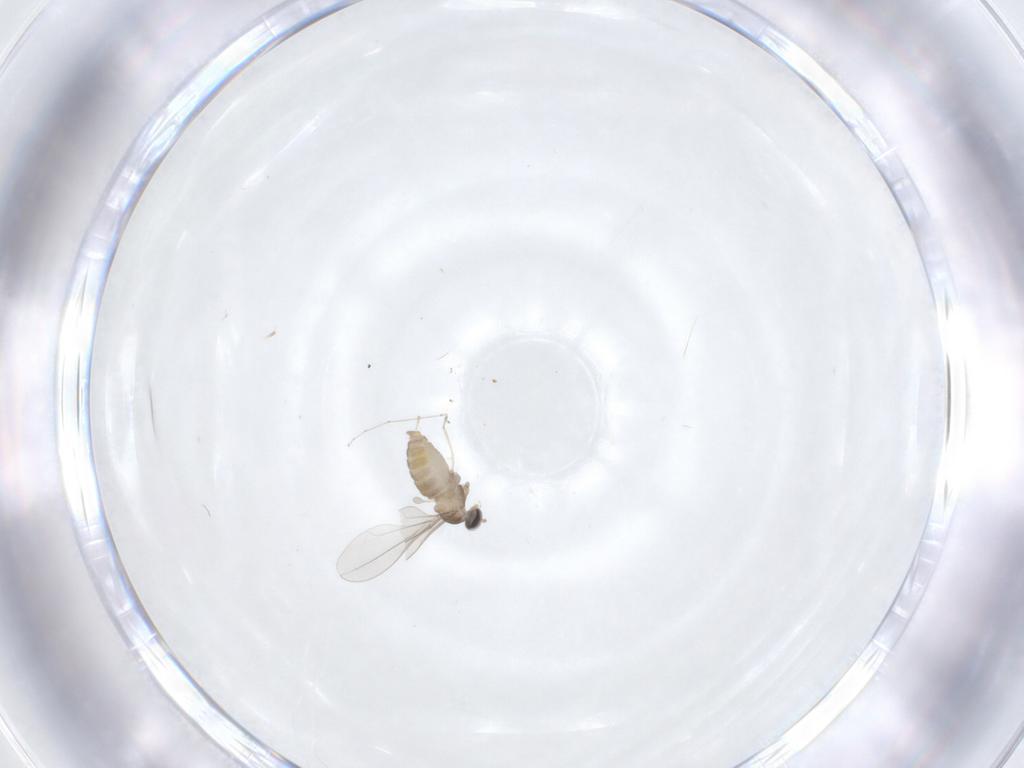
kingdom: Animalia
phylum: Arthropoda
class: Insecta
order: Diptera
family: Cecidomyiidae
